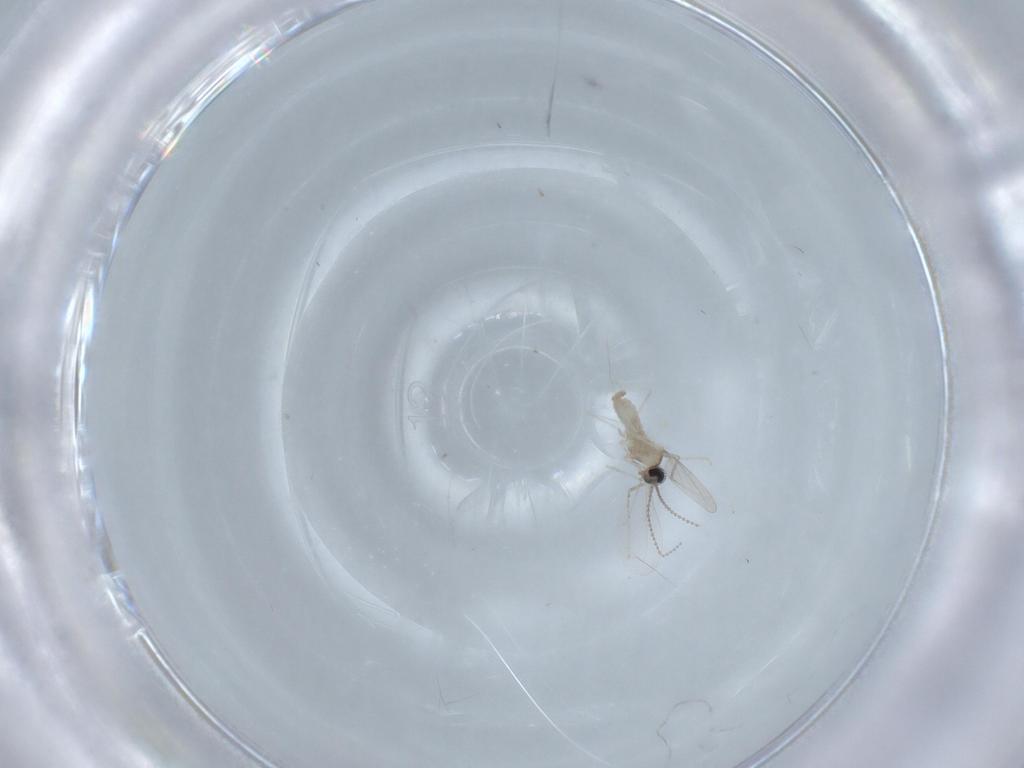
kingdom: Animalia
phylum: Arthropoda
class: Insecta
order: Diptera
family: Cecidomyiidae
